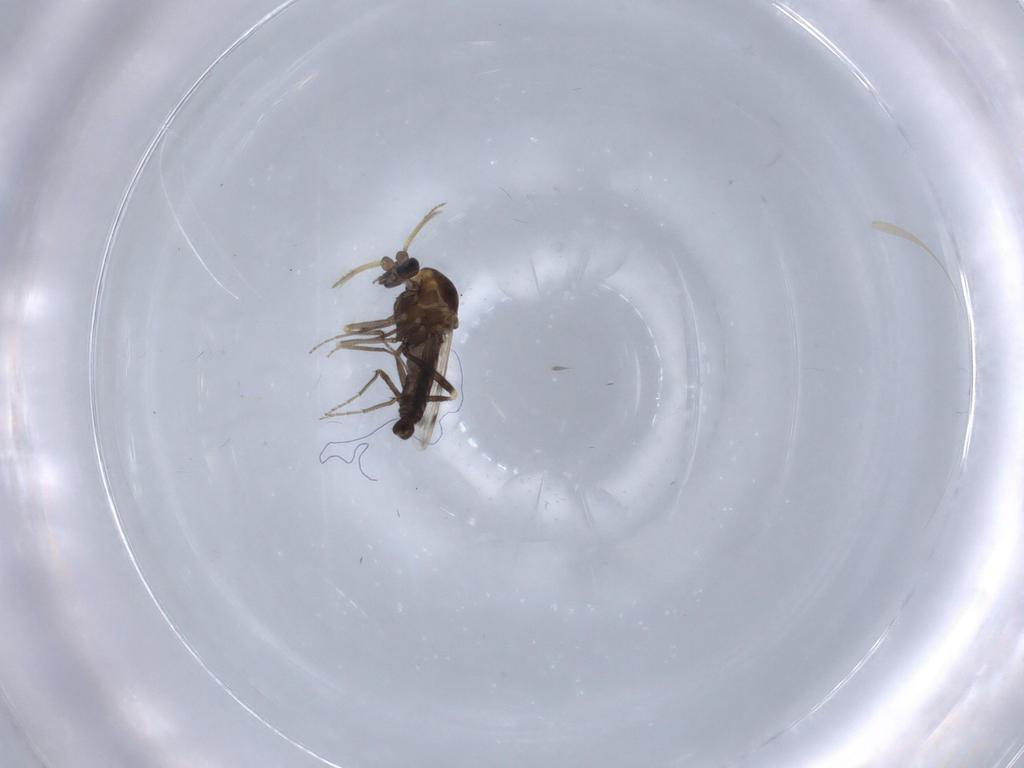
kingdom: Animalia
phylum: Arthropoda
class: Insecta
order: Diptera
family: Ceratopogonidae
